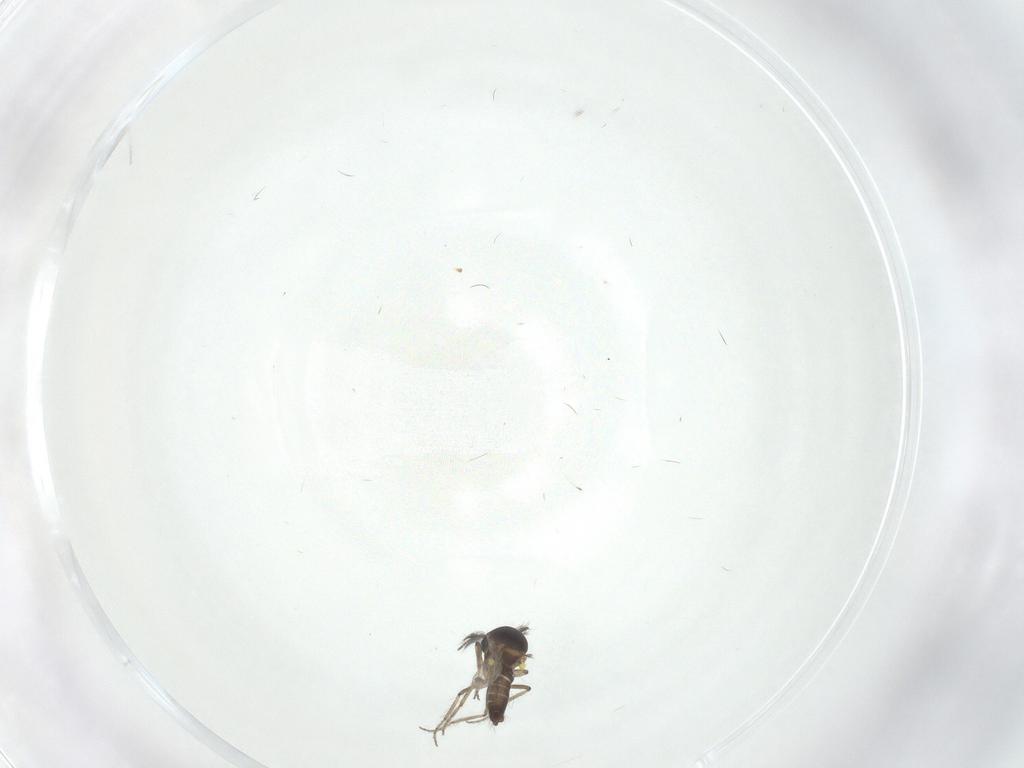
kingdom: Animalia
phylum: Arthropoda
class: Insecta
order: Diptera
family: Ceratopogonidae
